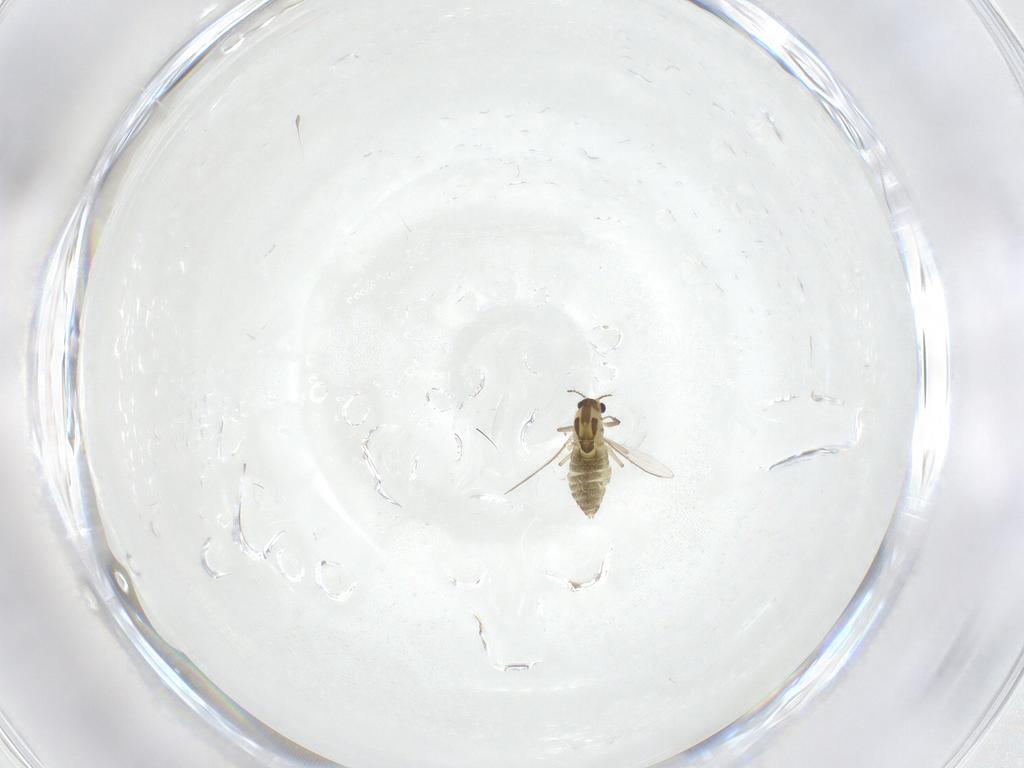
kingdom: Animalia
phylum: Arthropoda
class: Insecta
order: Diptera
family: Chironomidae
